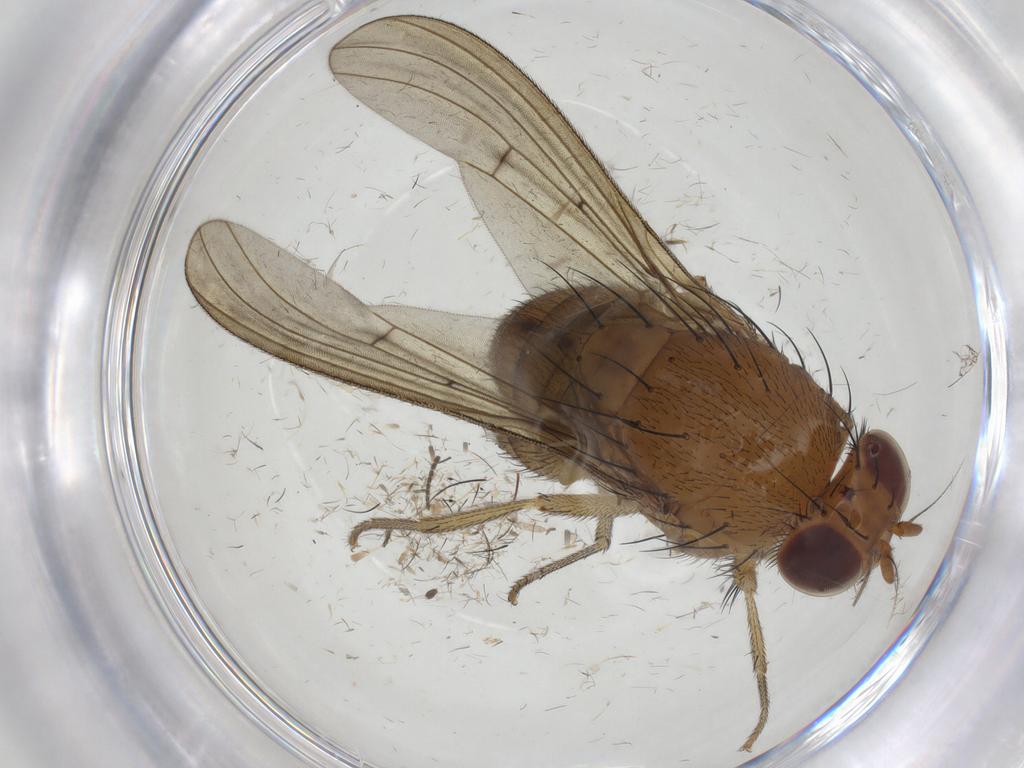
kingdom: Animalia
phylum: Arthropoda
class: Insecta
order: Diptera
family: Sciaridae
